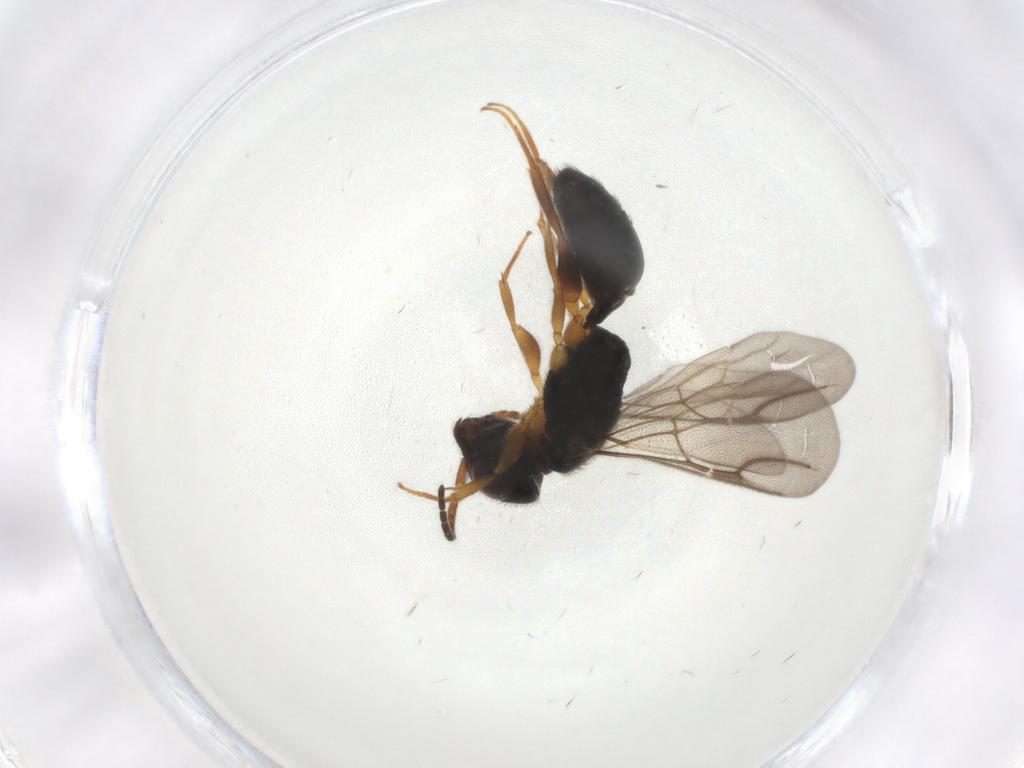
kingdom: Animalia
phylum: Arthropoda
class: Insecta
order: Hymenoptera
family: Bethylidae
